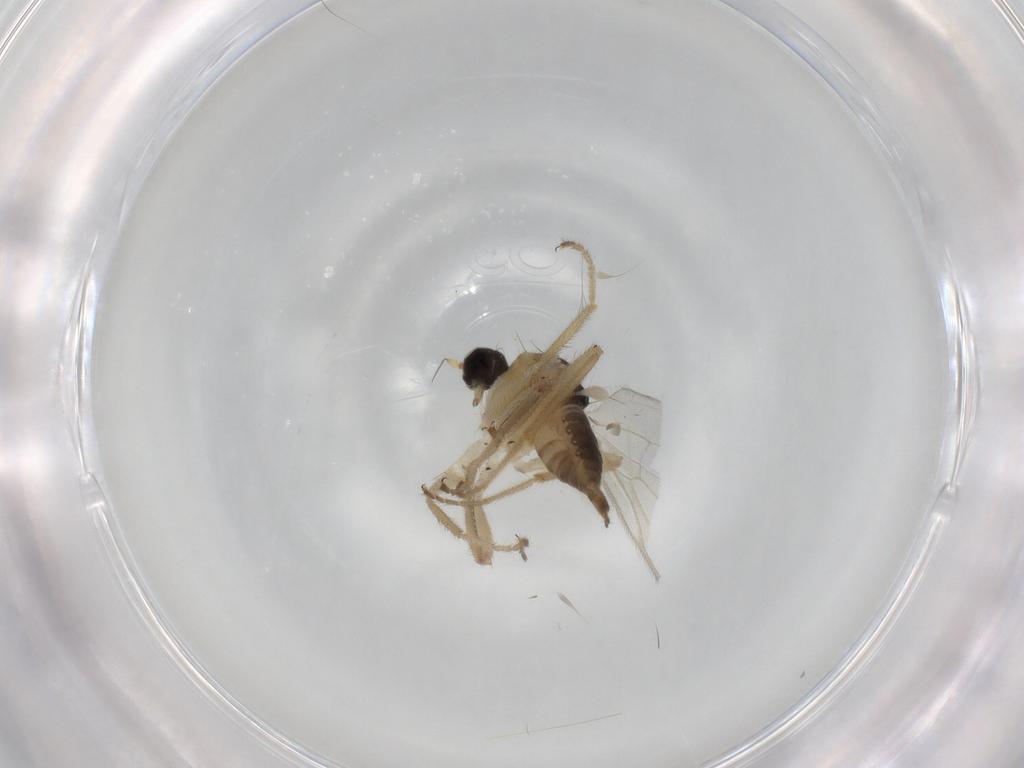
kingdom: Animalia
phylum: Arthropoda
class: Insecta
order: Diptera
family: Hybotidae
